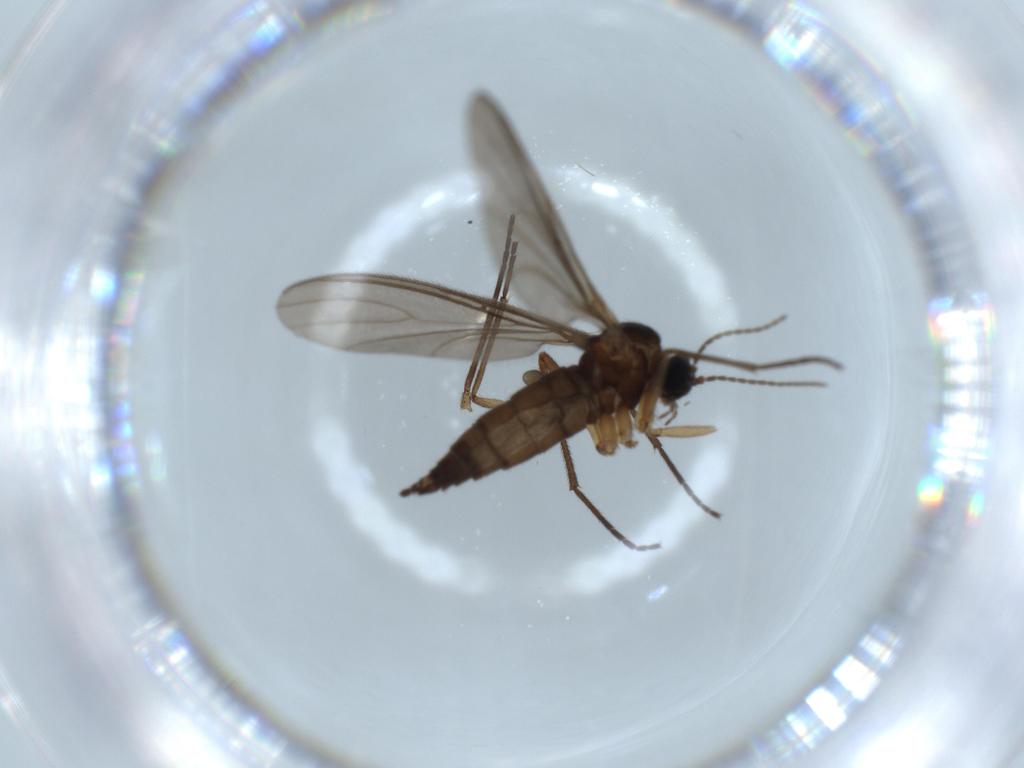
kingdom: Animalia
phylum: Arthropoda
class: Insecta
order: Diptera
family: Sciaridae
